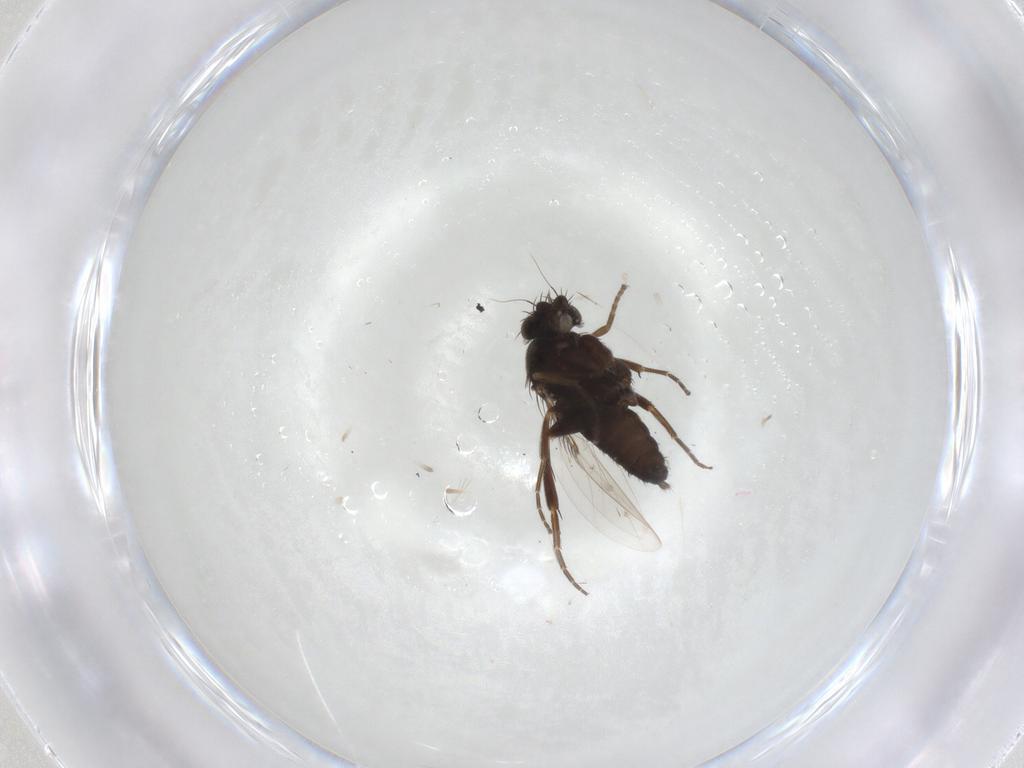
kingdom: Animalia
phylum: Arthropoda
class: Insecta
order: Diptera
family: Phoridae
